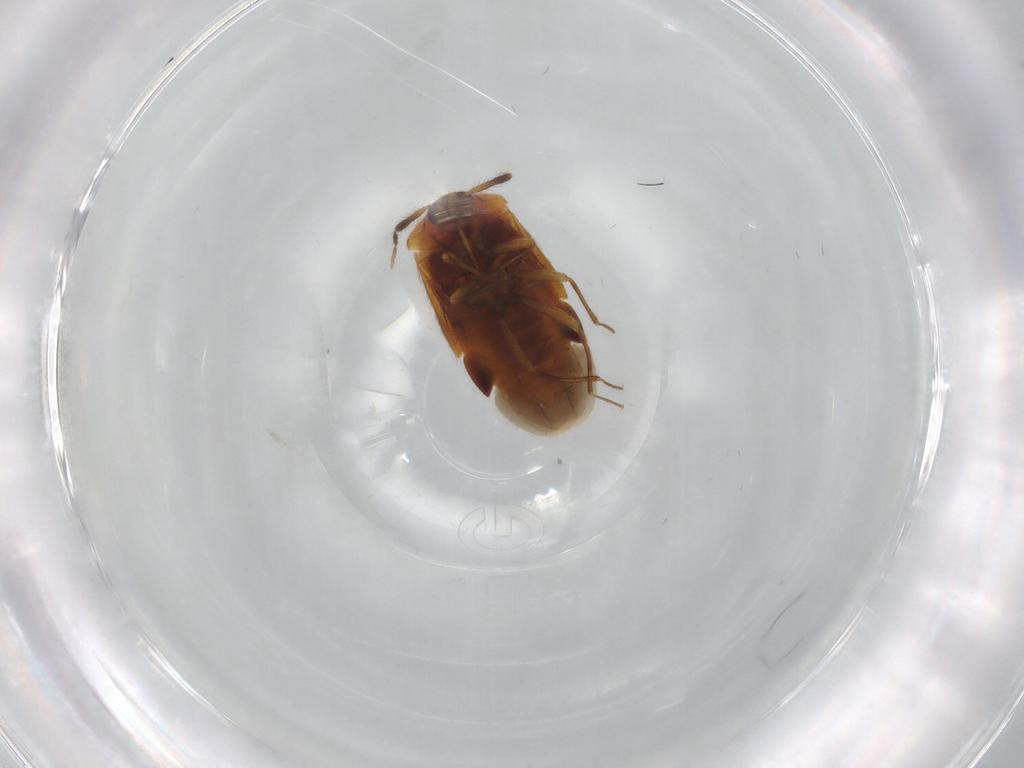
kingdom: Animalia
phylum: Arthropoda
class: Insecta
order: Hemiptera
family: Anthocoridae
